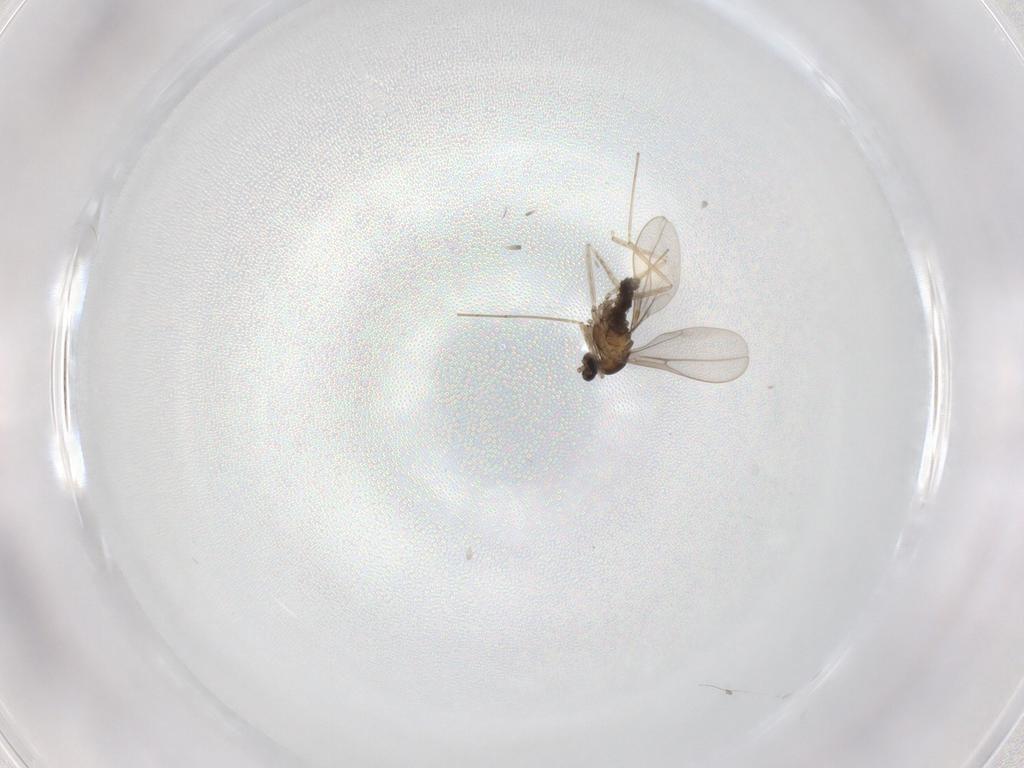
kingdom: Animalia
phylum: Arthropoda
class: Insecta
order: Diptera
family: Cecidomyiidae
